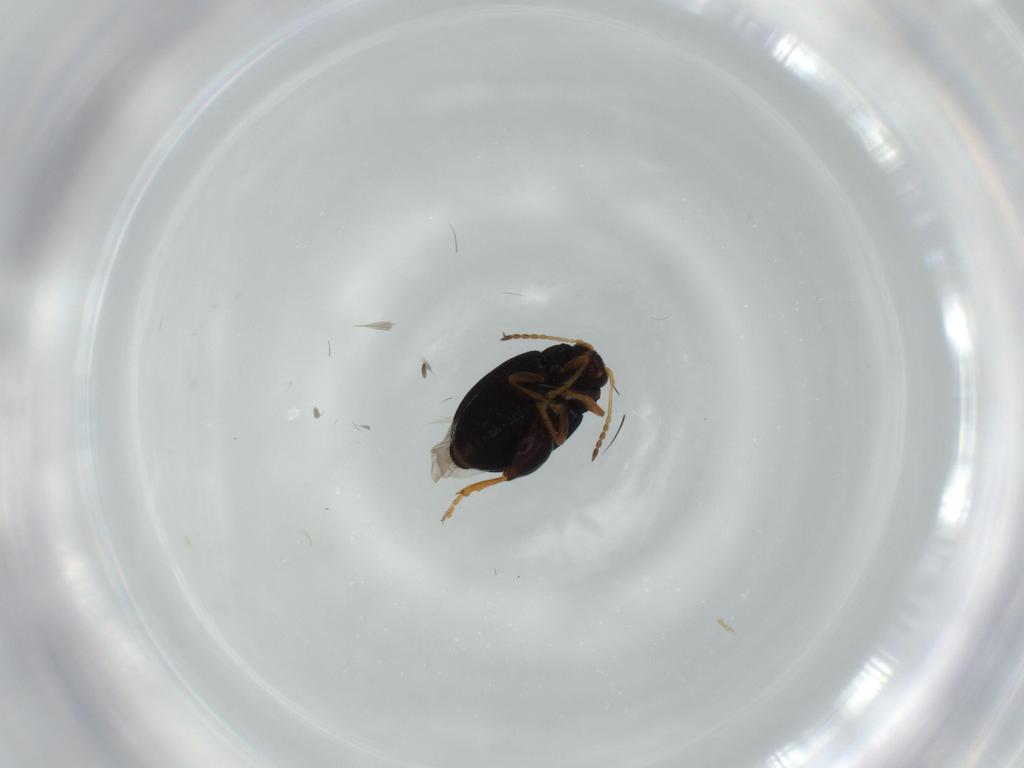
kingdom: Animalia
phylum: Arthropoda
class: Insecta
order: Coleoptera
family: Chrysomelidae
